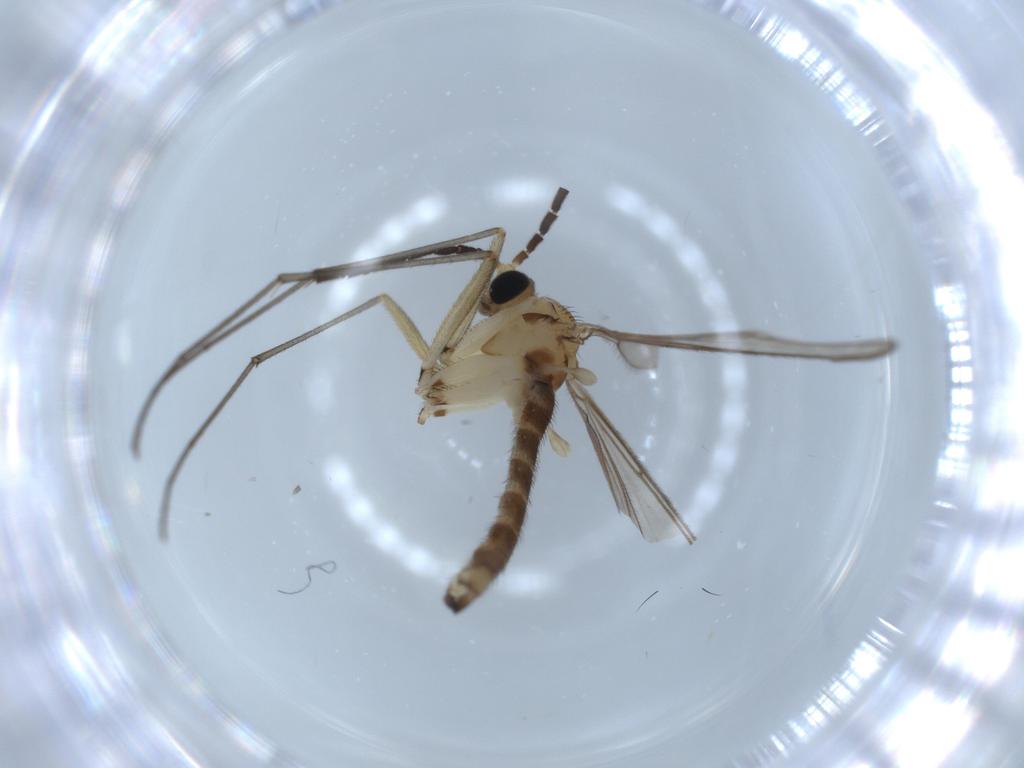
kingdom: Animalia
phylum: Arthropoda
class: Insecta
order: Diptera
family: Sciaridae
